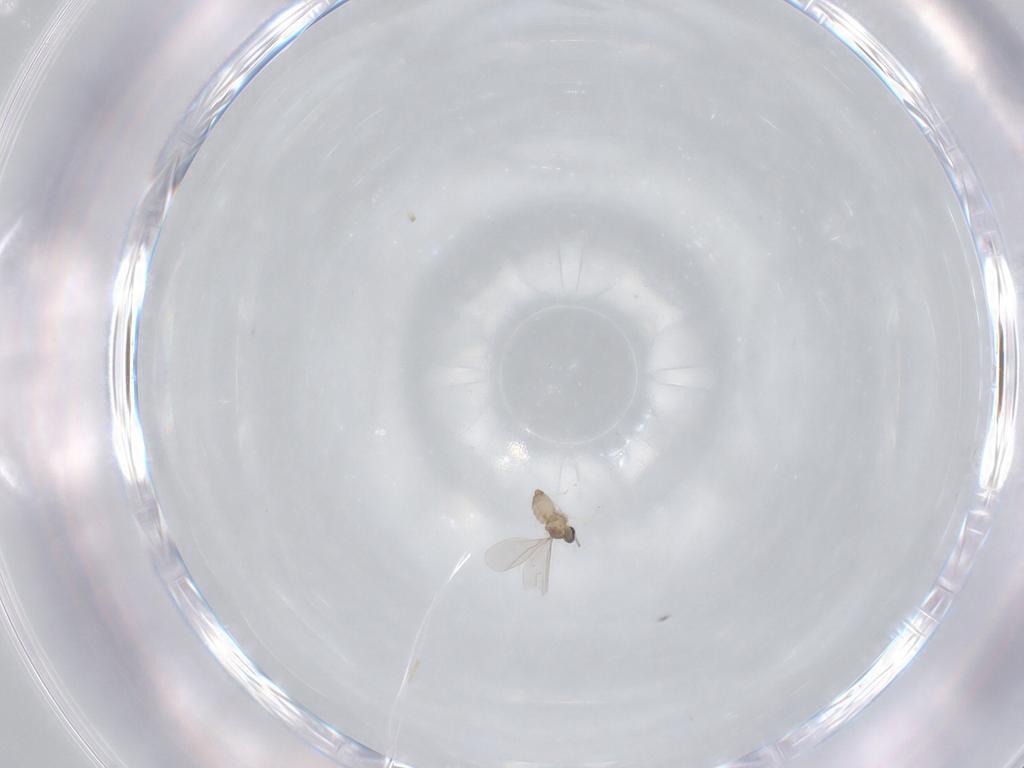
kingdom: Animalia
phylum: Arthropoda
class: Insecta
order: Diptera
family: Cecidomyiidae
